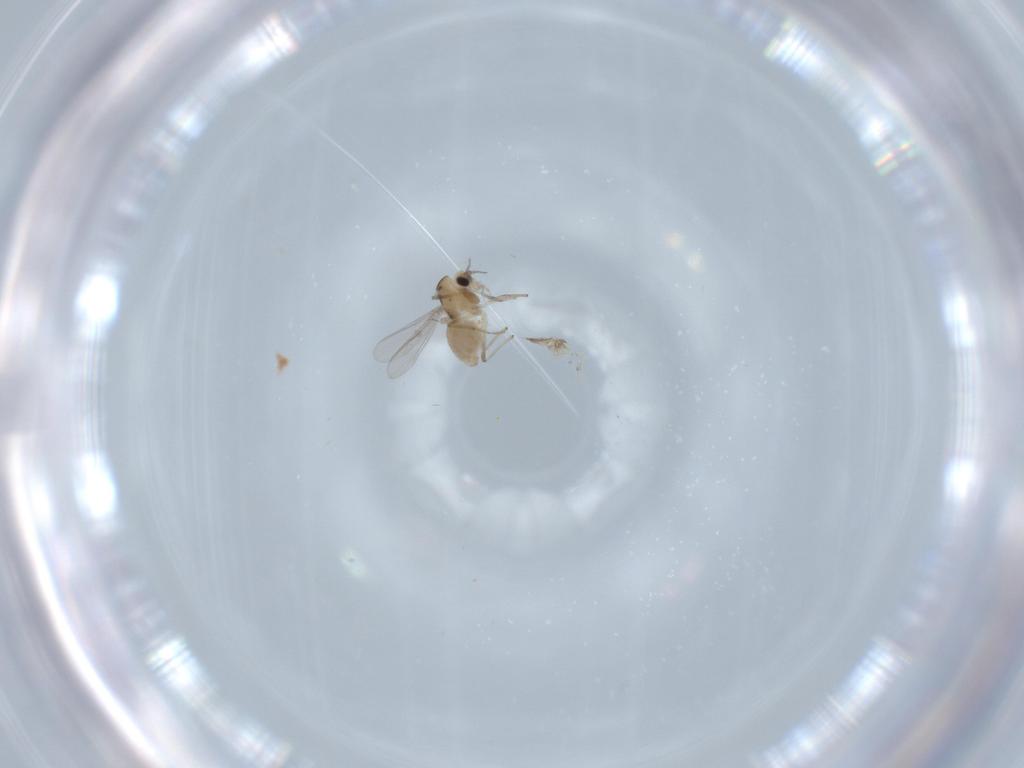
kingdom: Animalia
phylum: Arthropoda
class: Insecta
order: Diptera
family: Chironomidae
